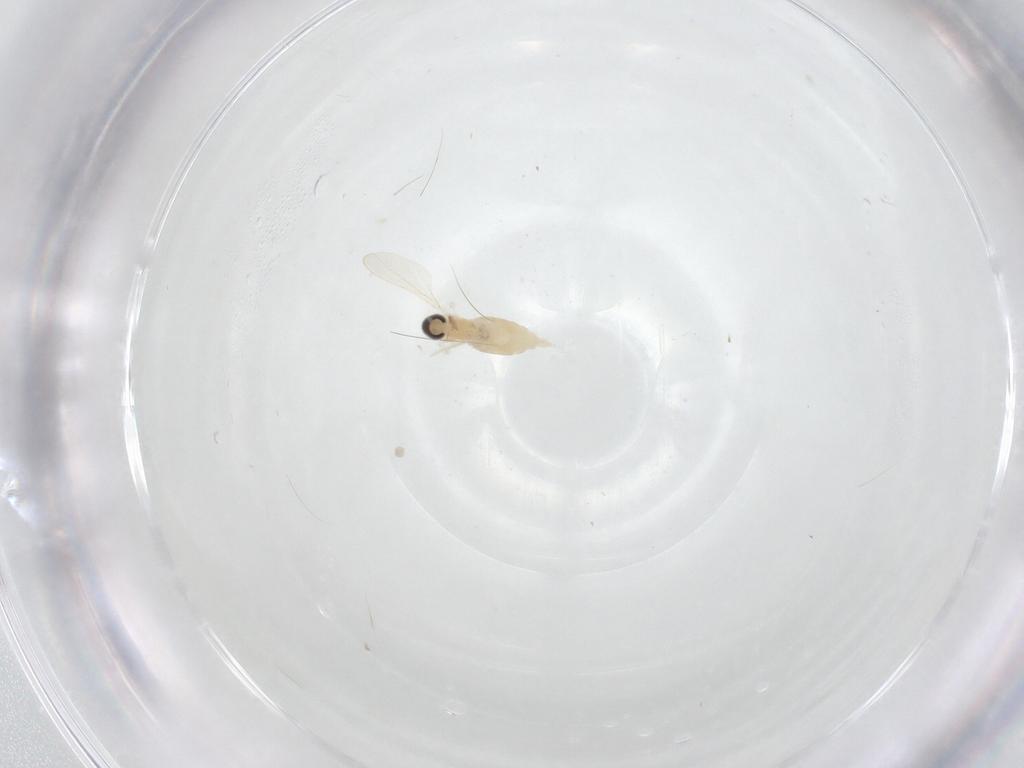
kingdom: Animalia
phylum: Arthropoda
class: Insecta
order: Diptera
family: Cecidomyiidae
